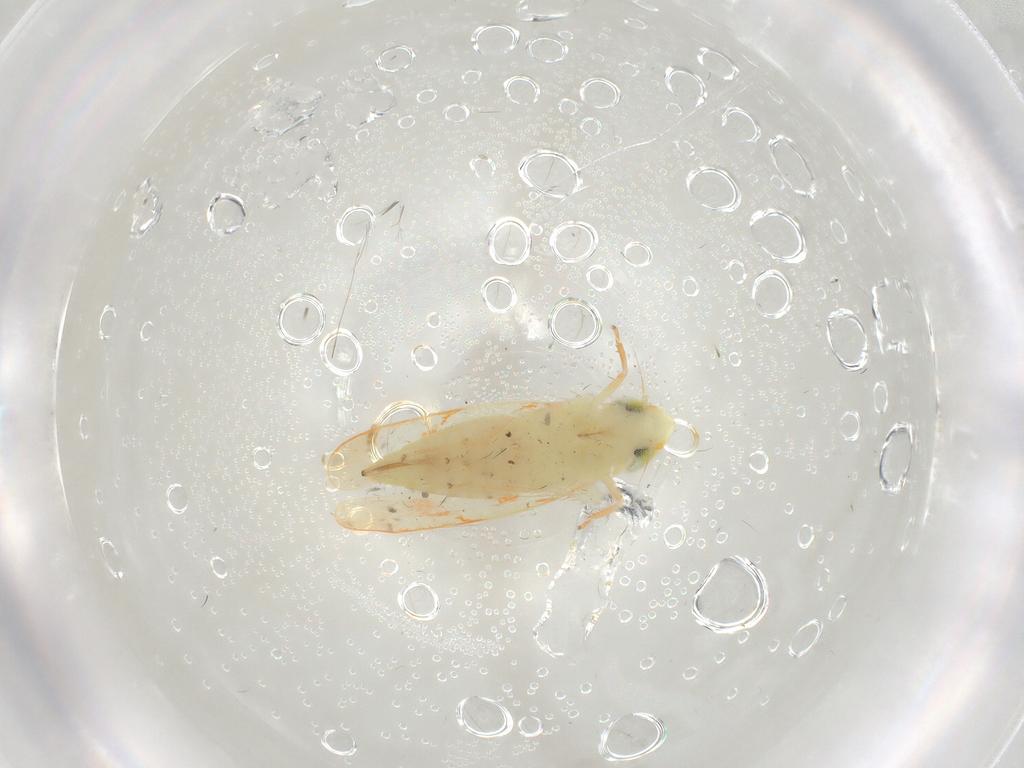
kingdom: Animalia
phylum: Arthropoda
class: Insecta
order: Hemiptera
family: Cicadellidae
